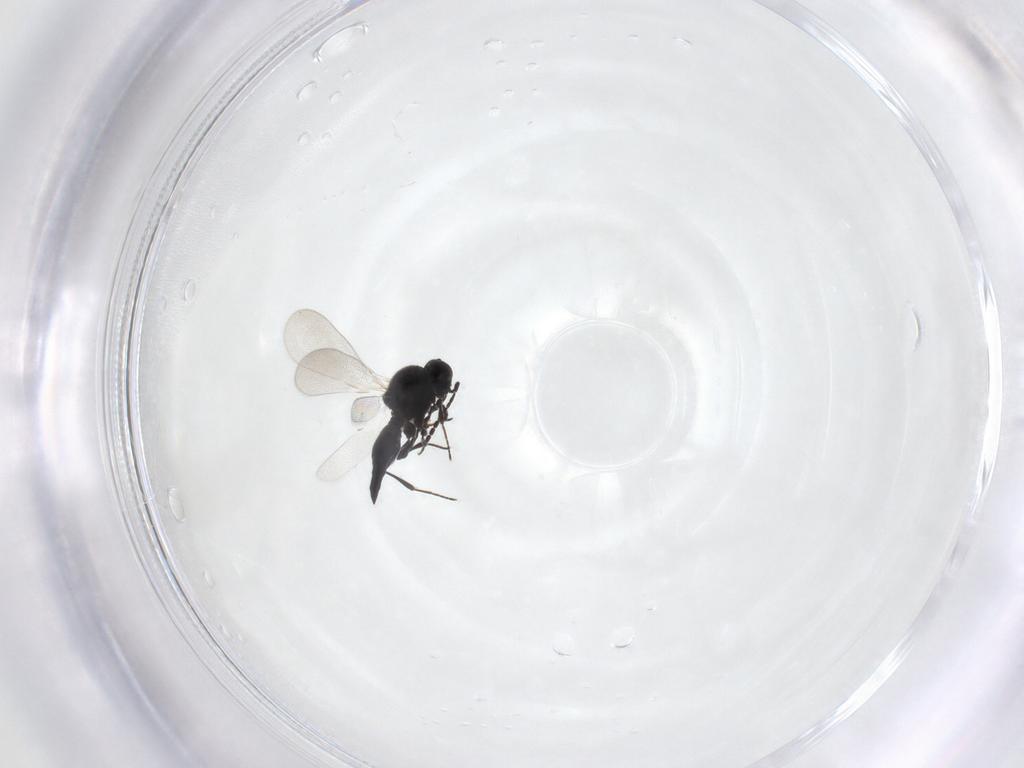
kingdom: Animalia
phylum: Arthropoda
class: Insecta
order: Hymenoptera
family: Platygastridae
